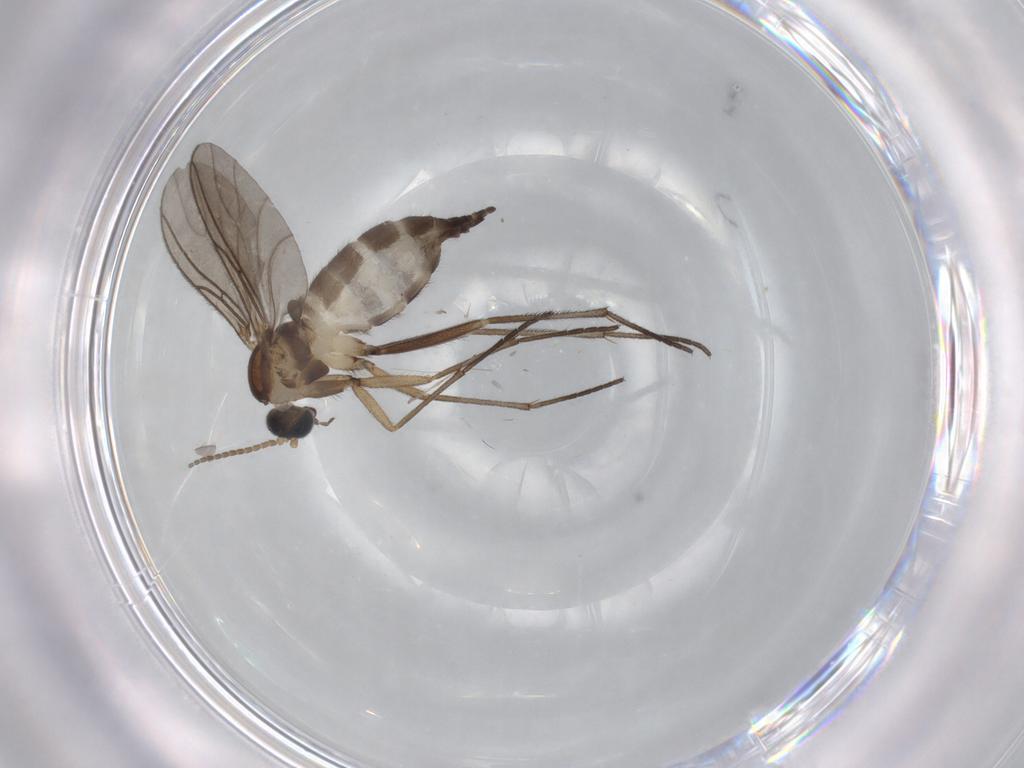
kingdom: Animalia
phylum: Arthropoda
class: Insecta
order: Diptera
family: Sciaridae
